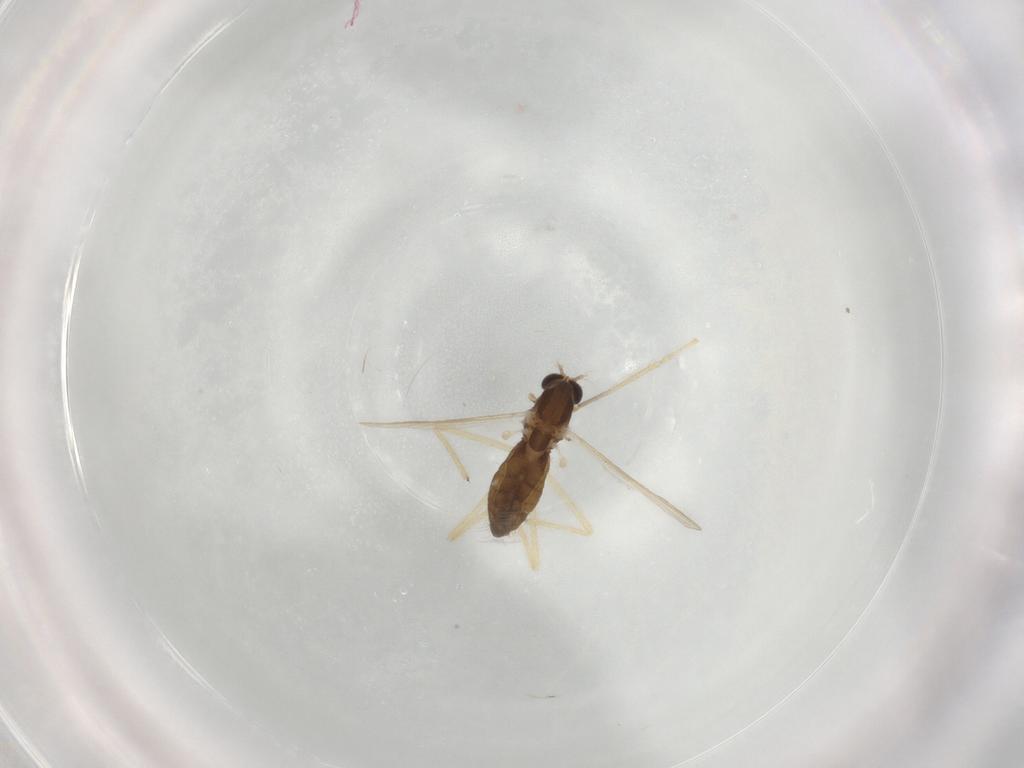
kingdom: Animalia
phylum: Arthropoda
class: Insecta
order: Diptera
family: Chironomidae
